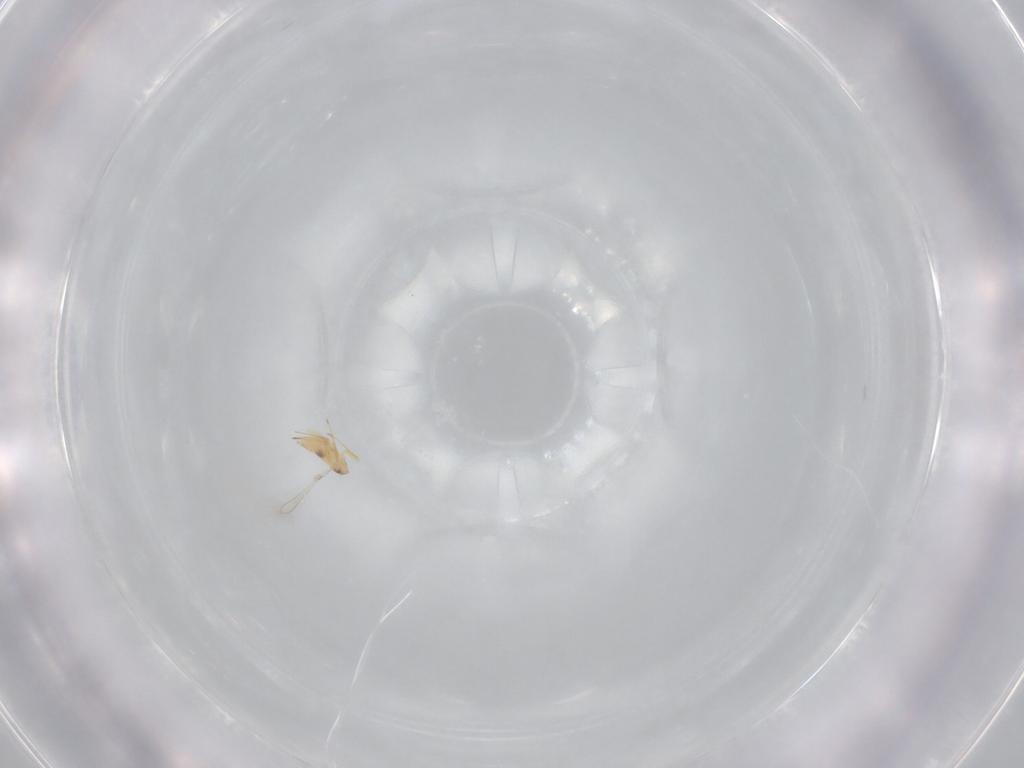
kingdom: Animalia
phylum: Arthropoda
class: Insecta
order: Hymenoptera
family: Mymaridae
